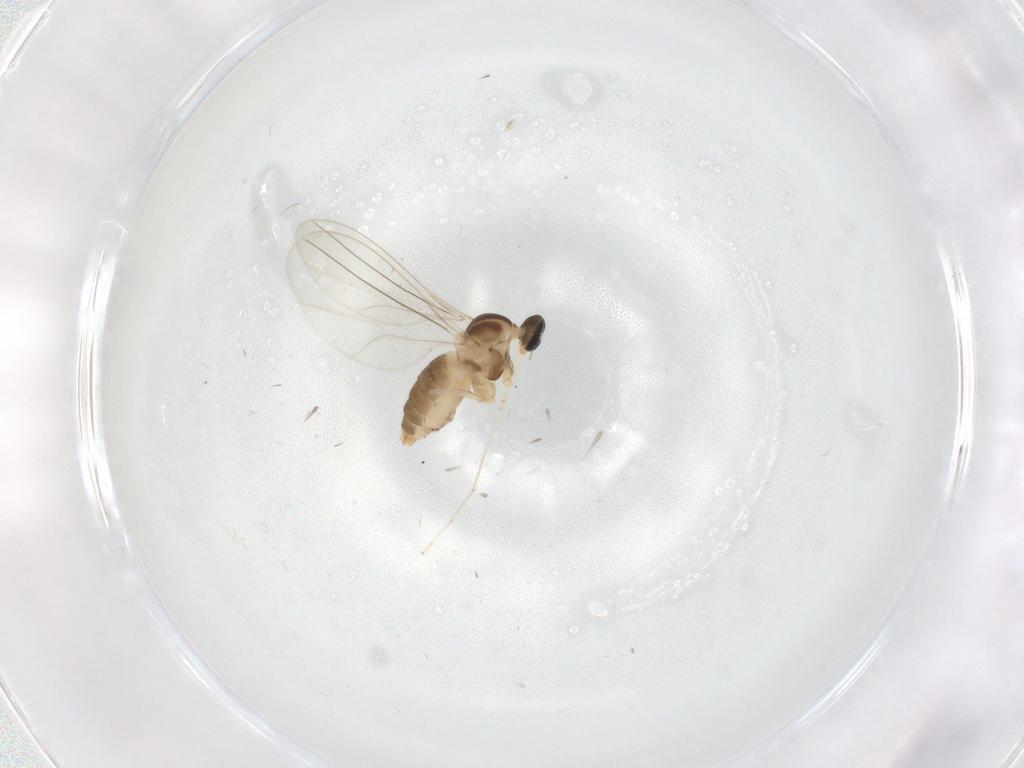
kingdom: Animalia
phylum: Arthropoda
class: Insecta
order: Diptera
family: Cecidomyiidae
